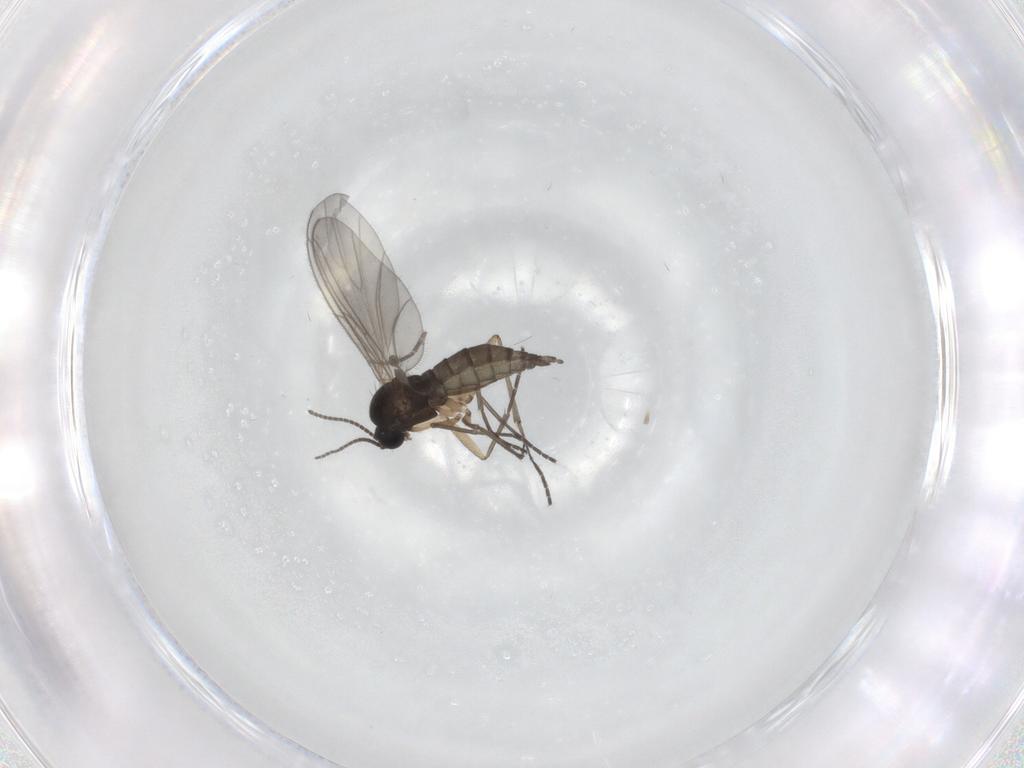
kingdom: Animalia
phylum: Arthropoda
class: Insecta
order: Diptera
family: Sciaridae
